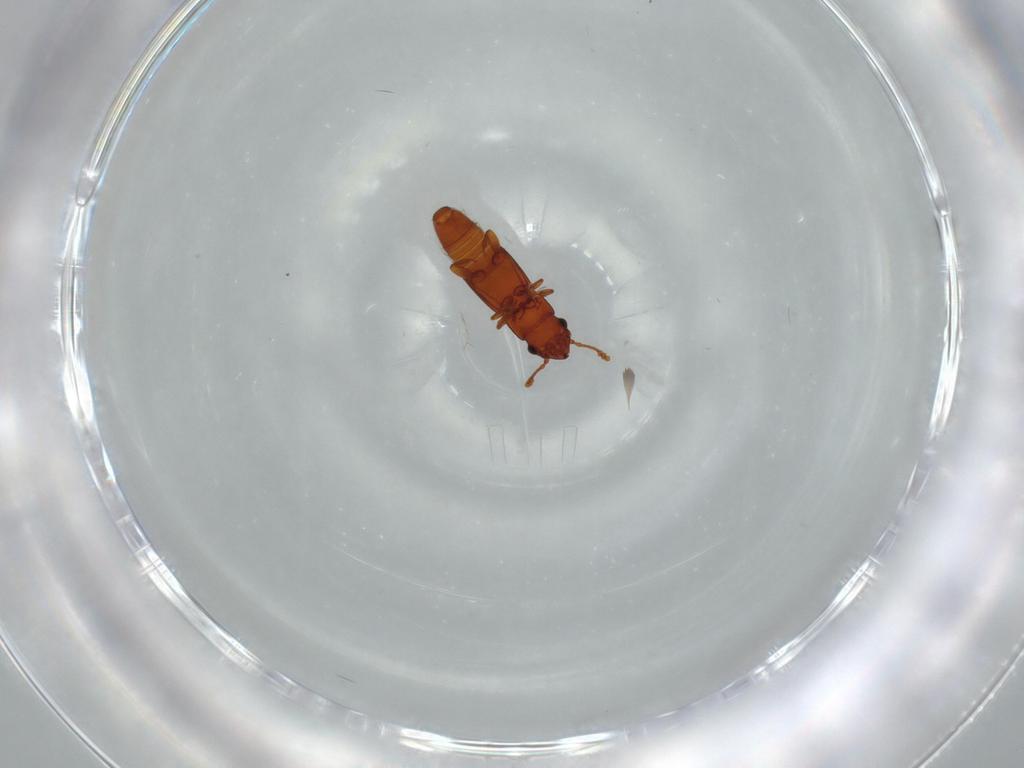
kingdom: Animalia
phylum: Arthropoda
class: Insecta
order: Coleoptera
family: Smicripidae
